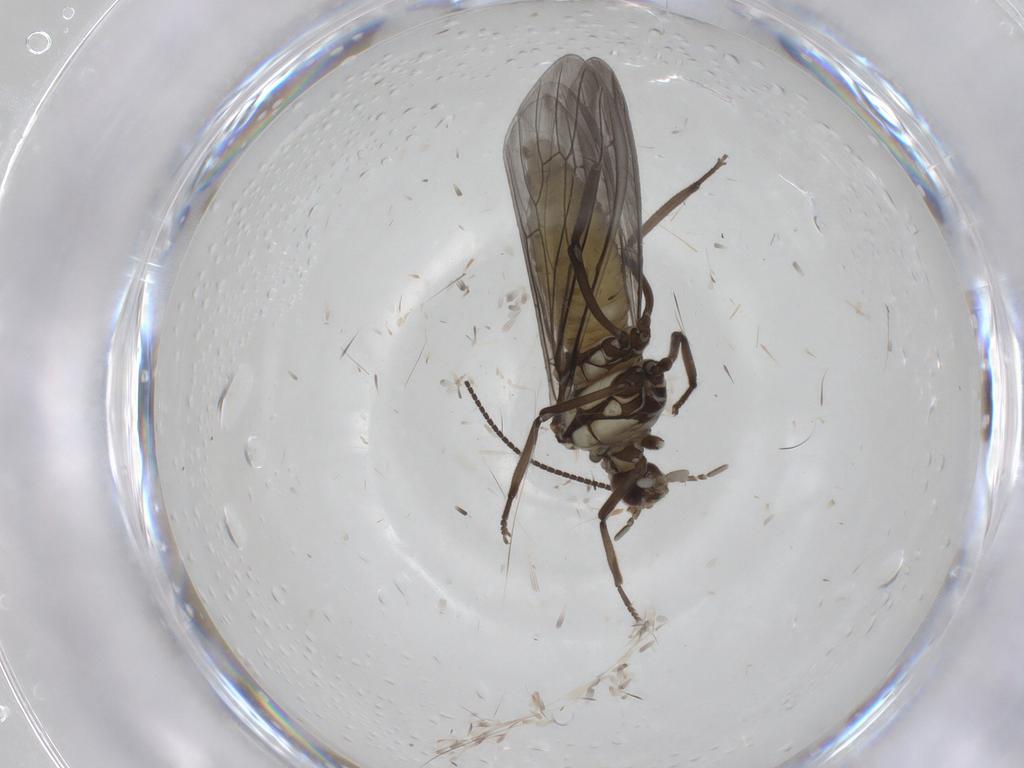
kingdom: Animalia
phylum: Arthropoda
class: Insecta
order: Neuroptera
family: Coniopterygidae
